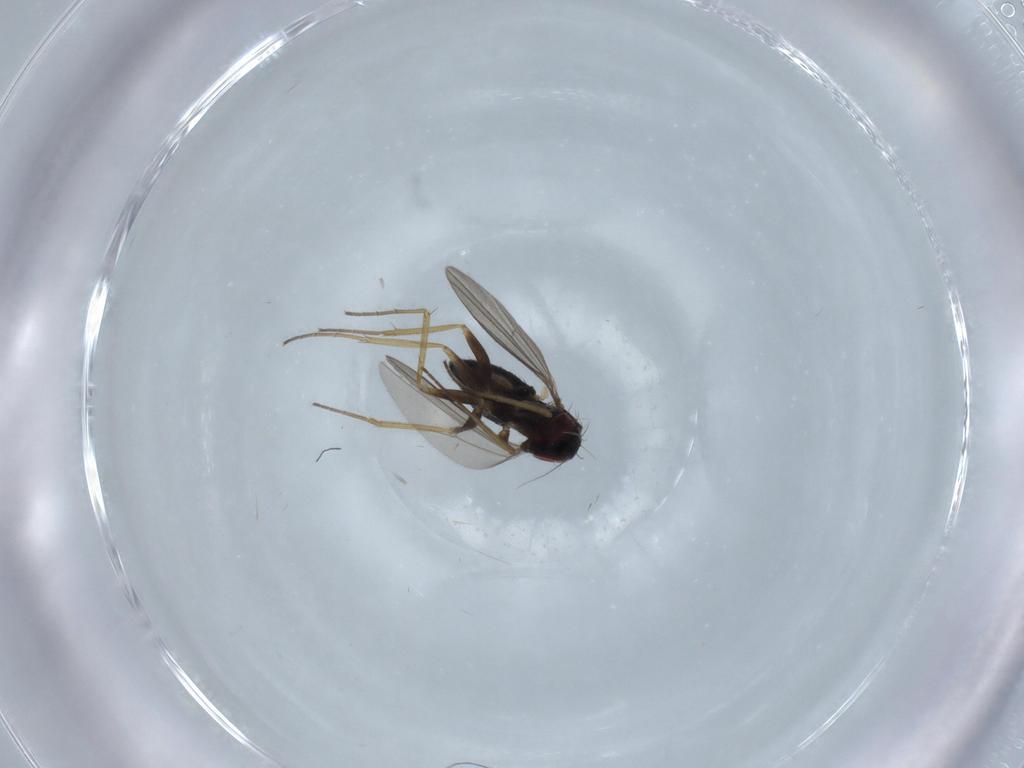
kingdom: Animalia
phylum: Arthropoda
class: Insecta
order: Diptera
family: Dolichopodidae
